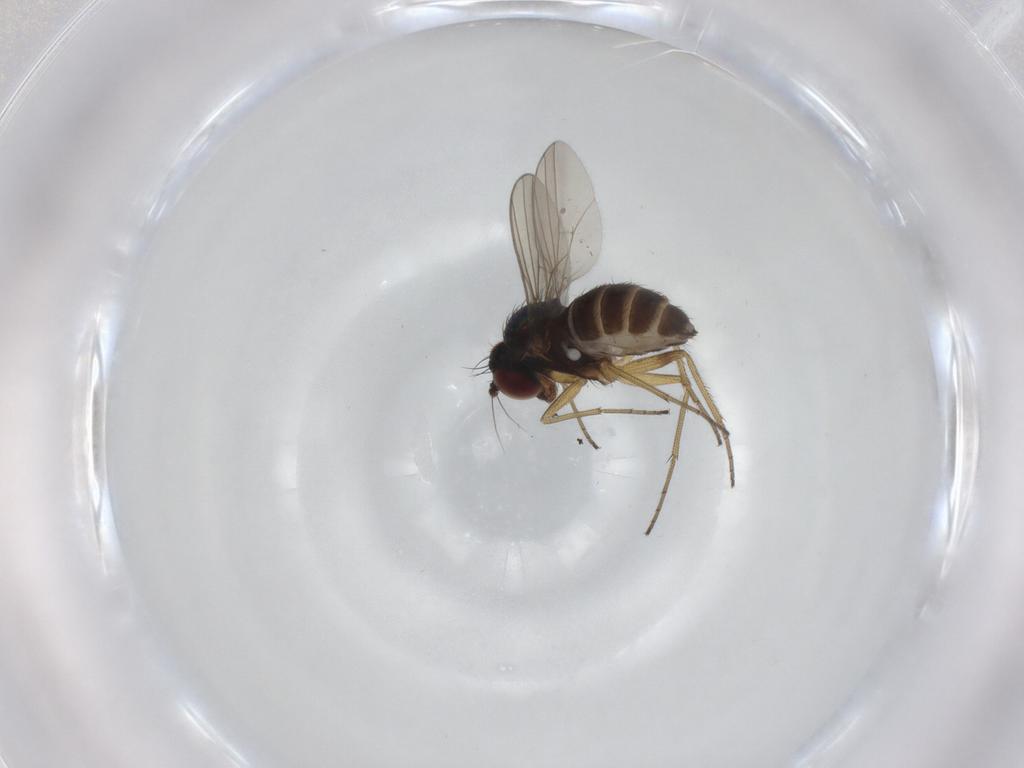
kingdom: Animalia
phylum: Arthropoda
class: Insecta
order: Diptera
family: Dolichopodidae
